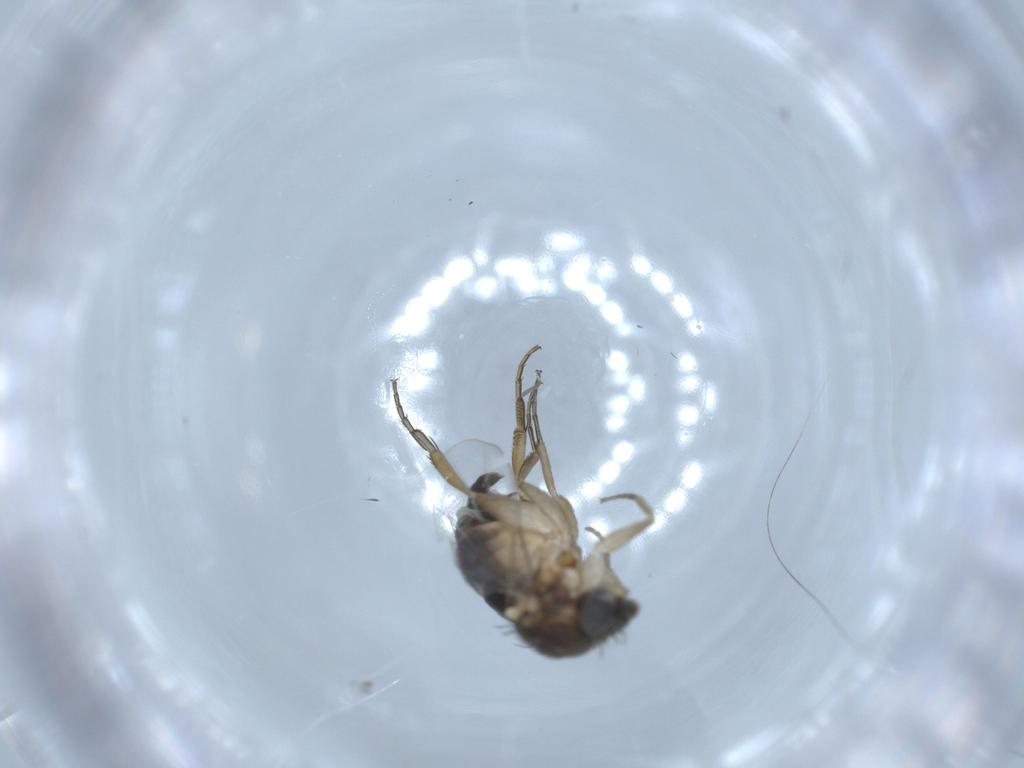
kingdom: Animalia
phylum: Arthropoda
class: Insecta
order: Diptera
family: Phoridae
